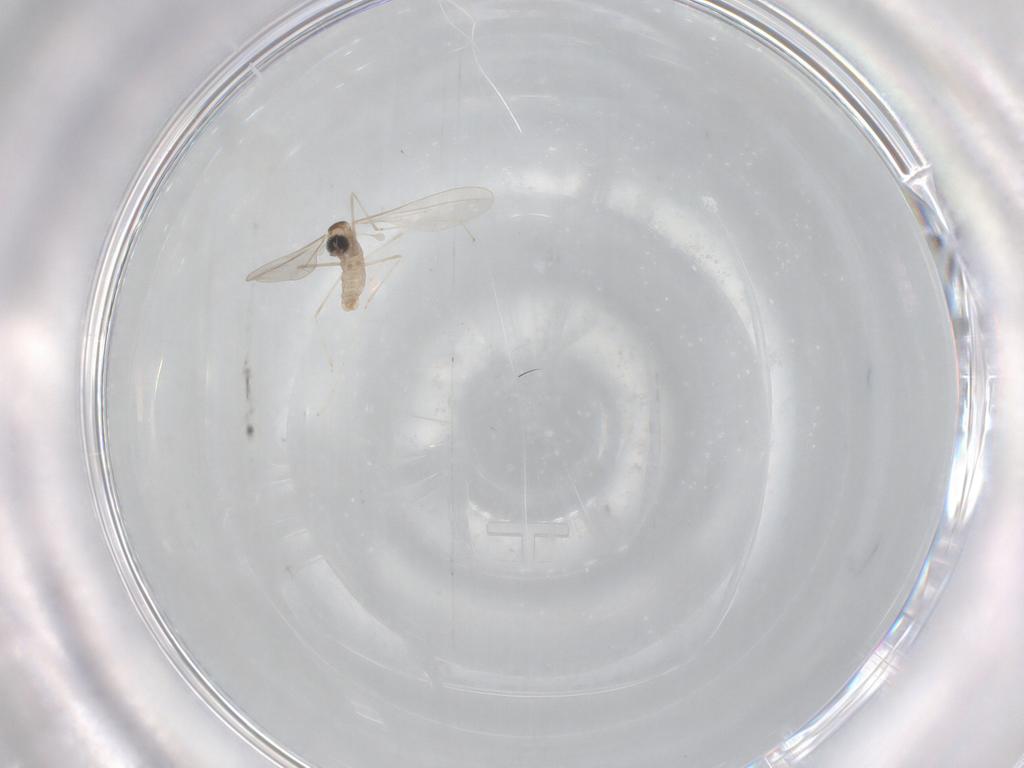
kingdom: Animalia
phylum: Arthropoda
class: Insecta
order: Diptera
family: Cecidomyiidae
